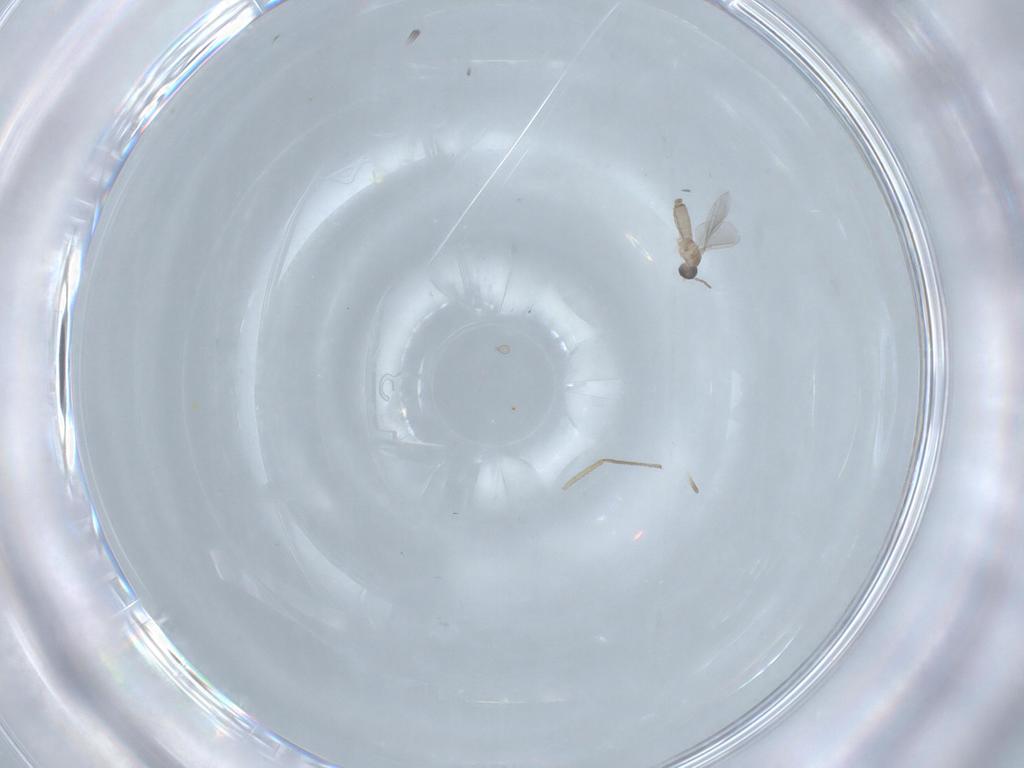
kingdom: Animalia
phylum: Arthropoda
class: Insecta
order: Diptera
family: Cecidomyiidae
